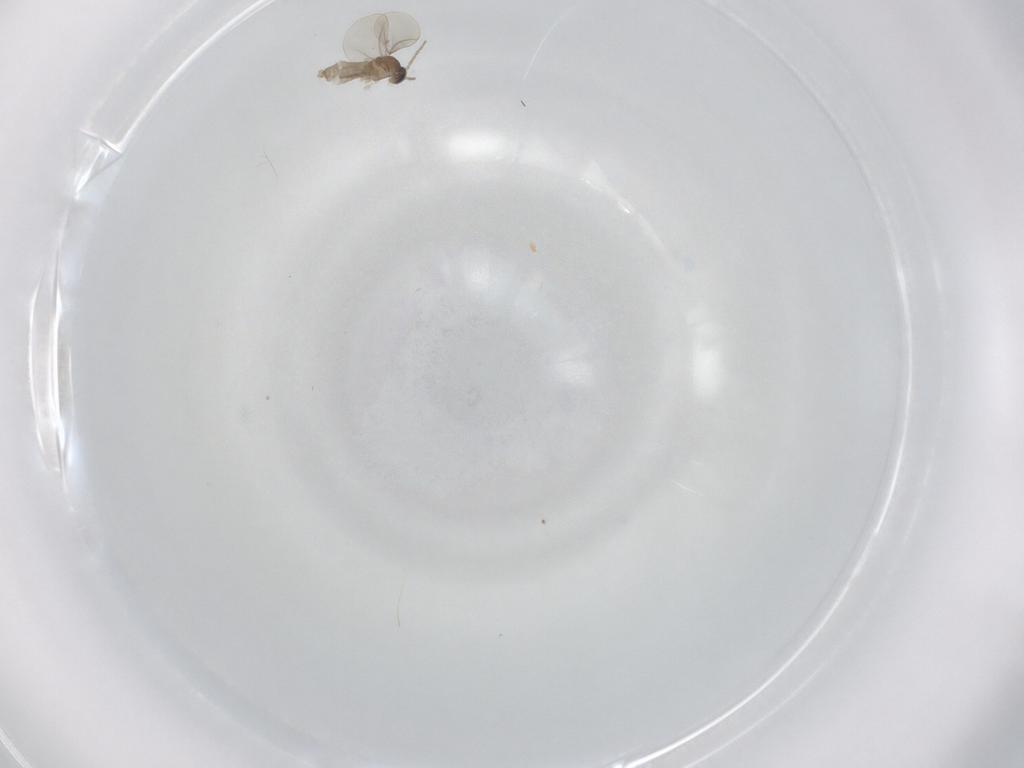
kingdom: Animalia
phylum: Arthropoda
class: Insecta
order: Diptera
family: Cecidomyiidae
